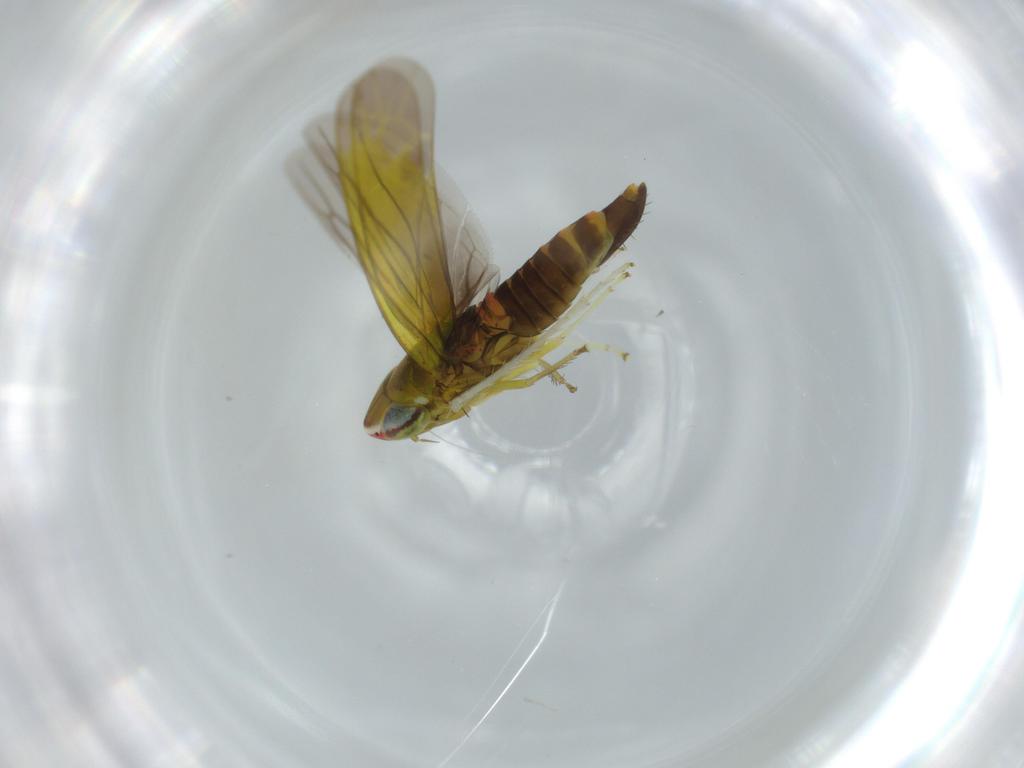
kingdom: Animalia
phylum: Arthropoda
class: Insecta
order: Hemiptera
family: Cicadellidae
